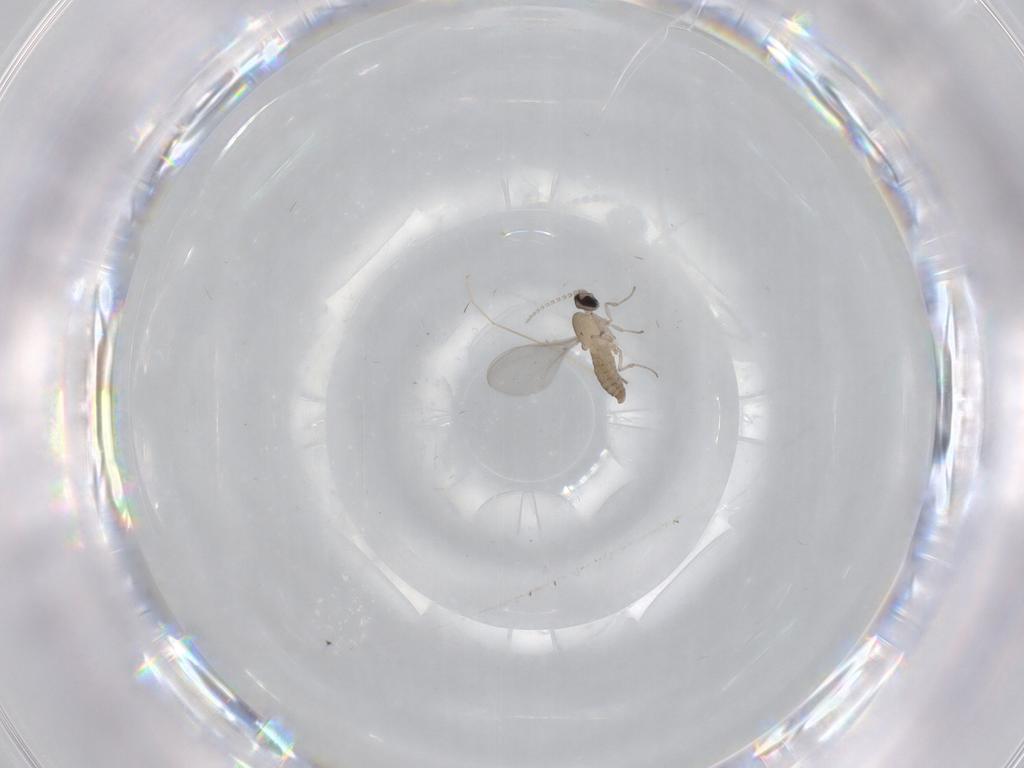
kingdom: Animalia
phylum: Arthropoda
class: Insecta
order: Diptera
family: Cecidomyiidae
